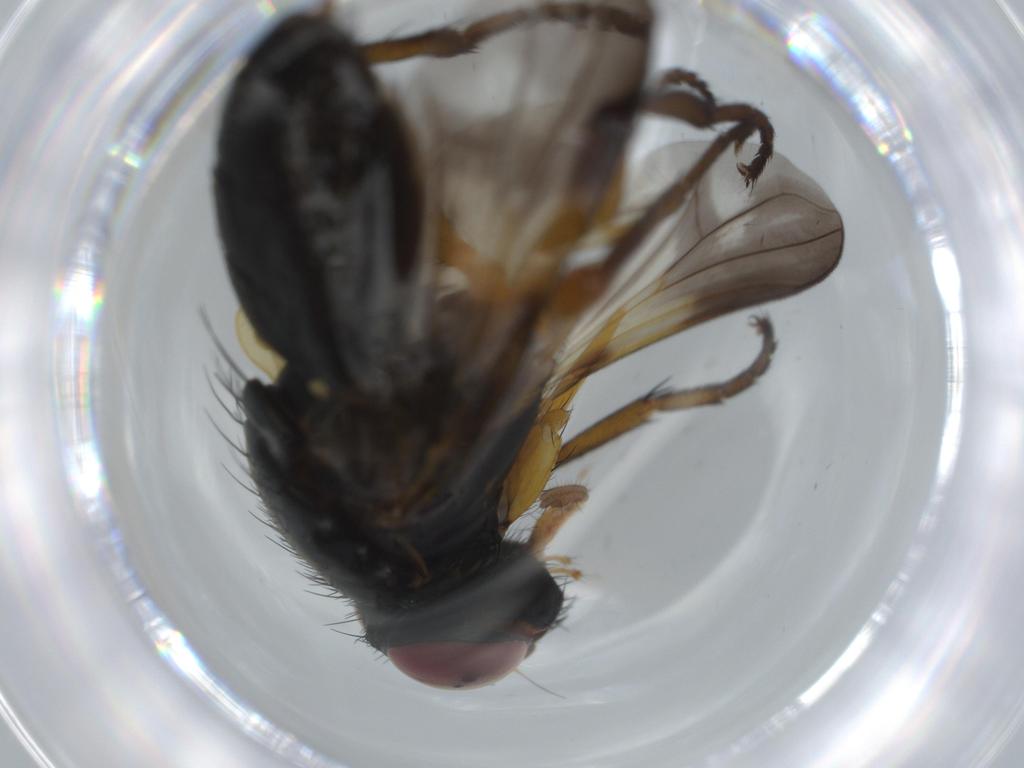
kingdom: Animalia
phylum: Arthropoda
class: Insecta
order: Diptera
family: Calliphoridae
